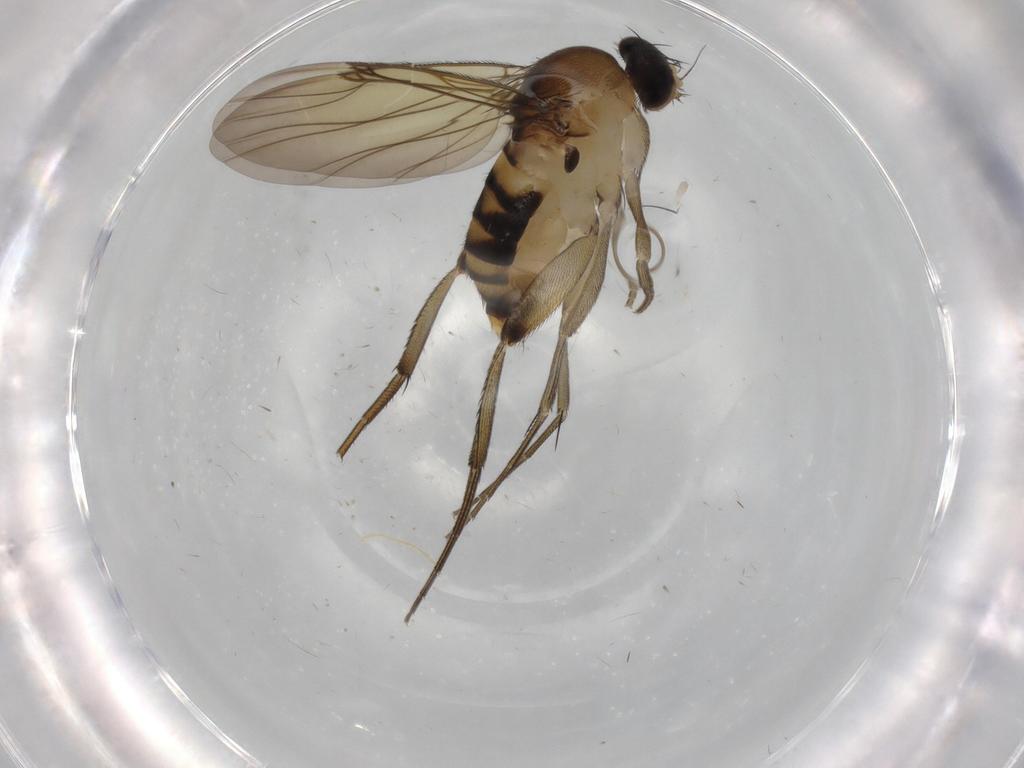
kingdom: Animalia
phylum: Arthropoda
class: Insecta
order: Diptera
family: Phoridae
